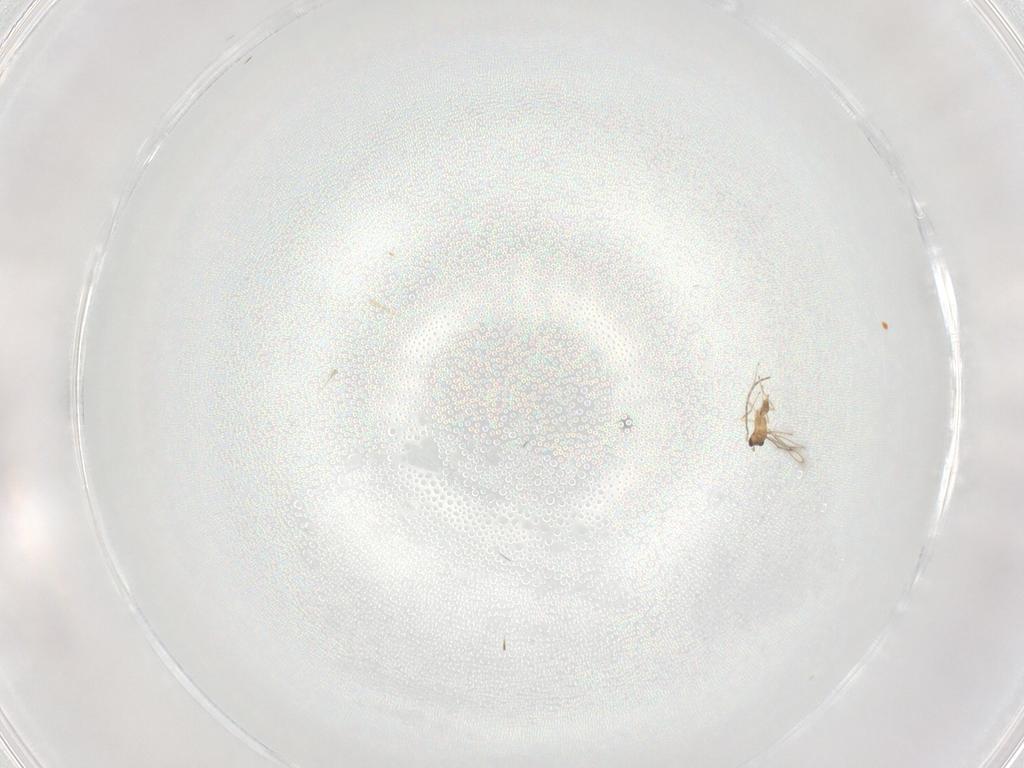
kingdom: Animalia
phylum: Arthropoda
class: Insecta
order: Hymenoptera
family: Mymaridae
